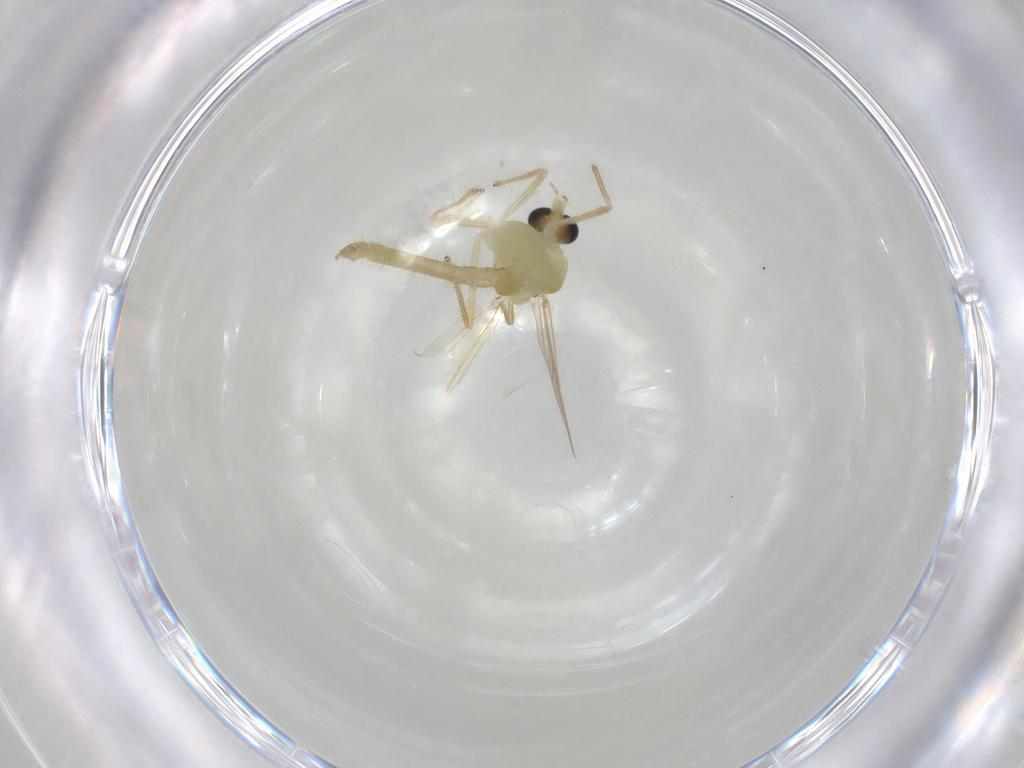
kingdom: Animalia
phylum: Arthropoda
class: Insecta
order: Diptera
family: Chironomidae
